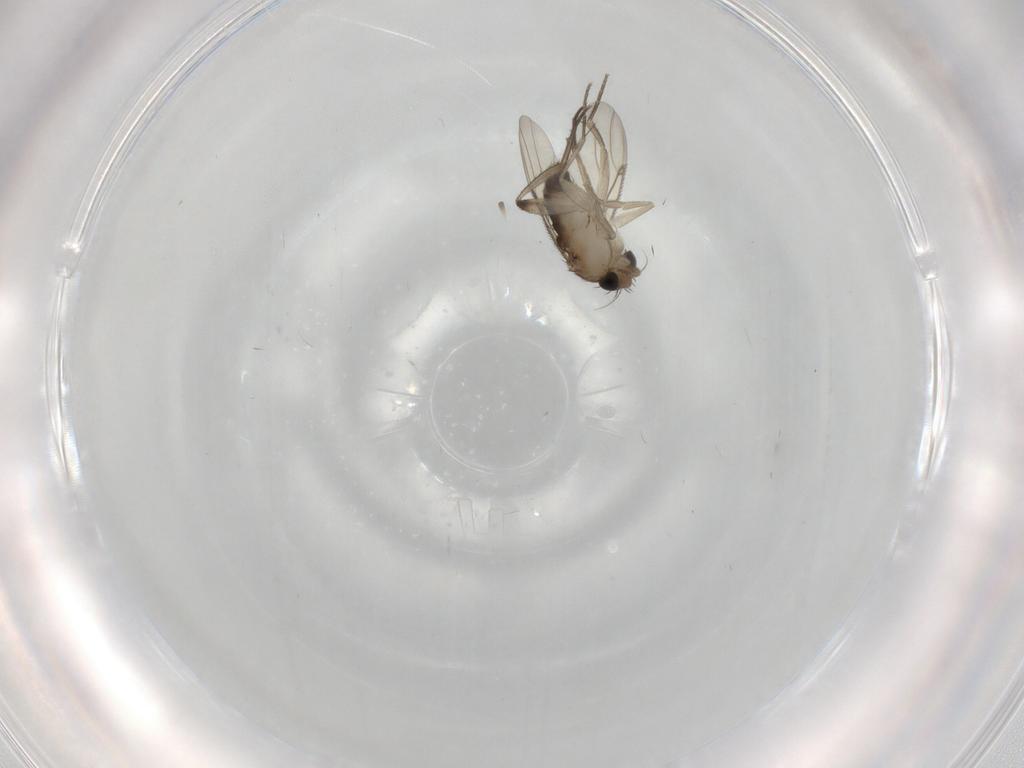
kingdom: Animalia
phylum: Arthropoda
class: Insecta
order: Diptera
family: Phoridae
